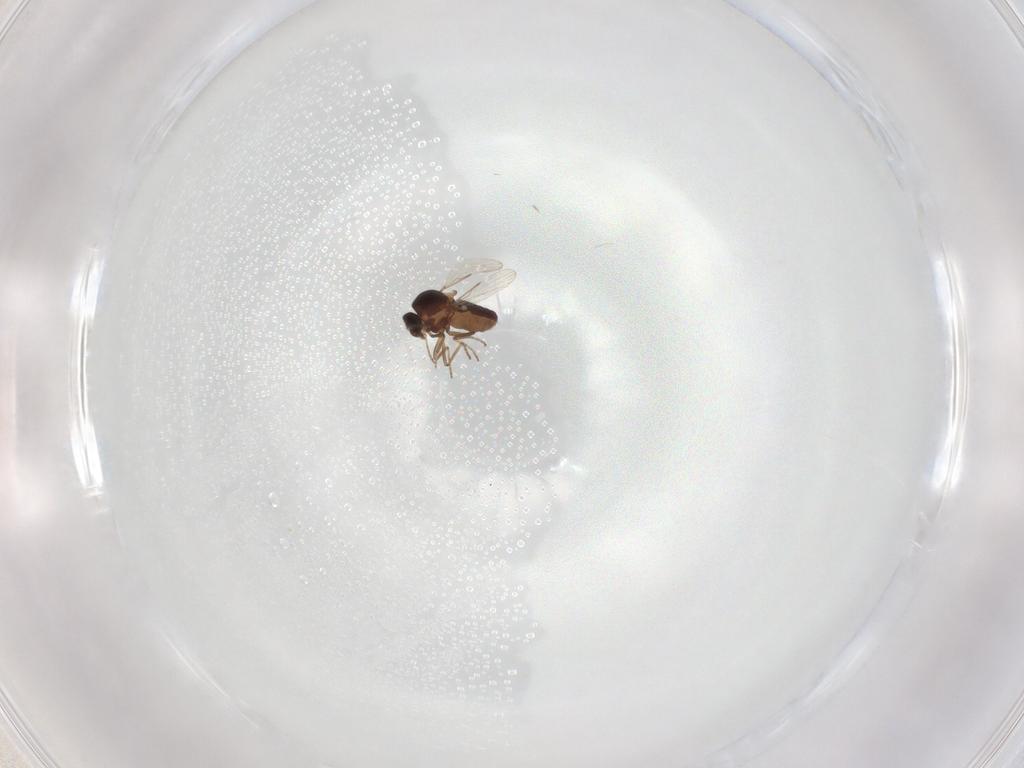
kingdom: Animalia
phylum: Arthropoda
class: Insecta
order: Diptera
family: Ceratopogonidae
